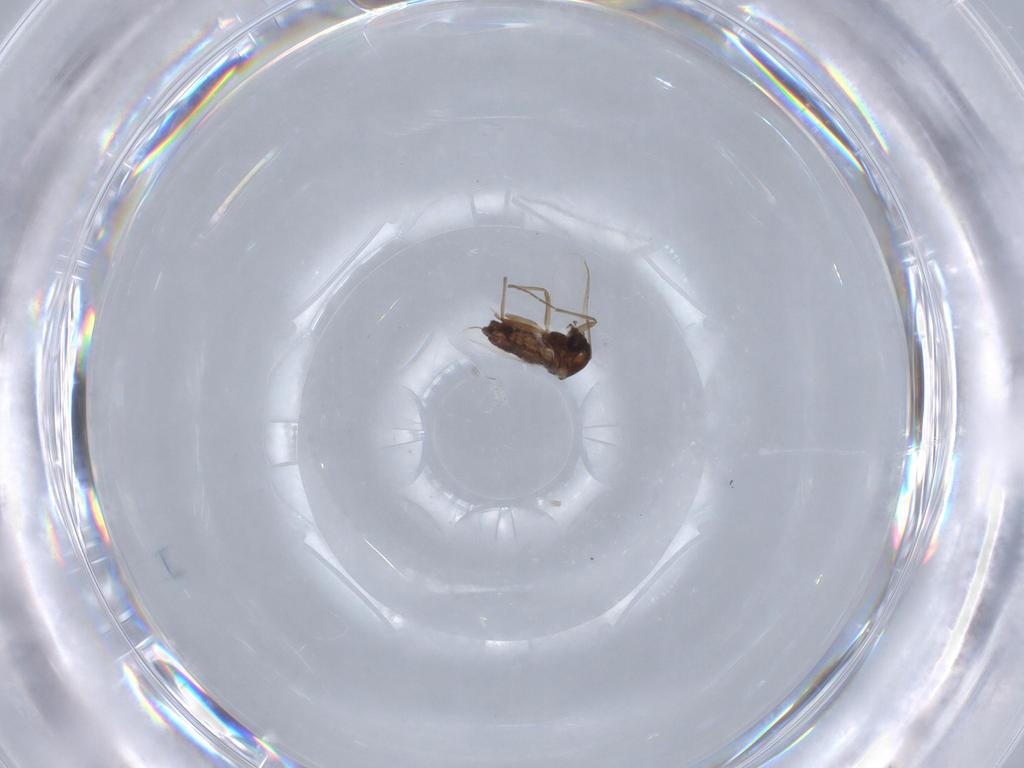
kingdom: Animalia
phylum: Arthropoda
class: Insecta
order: Diptera
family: Chironomidae
